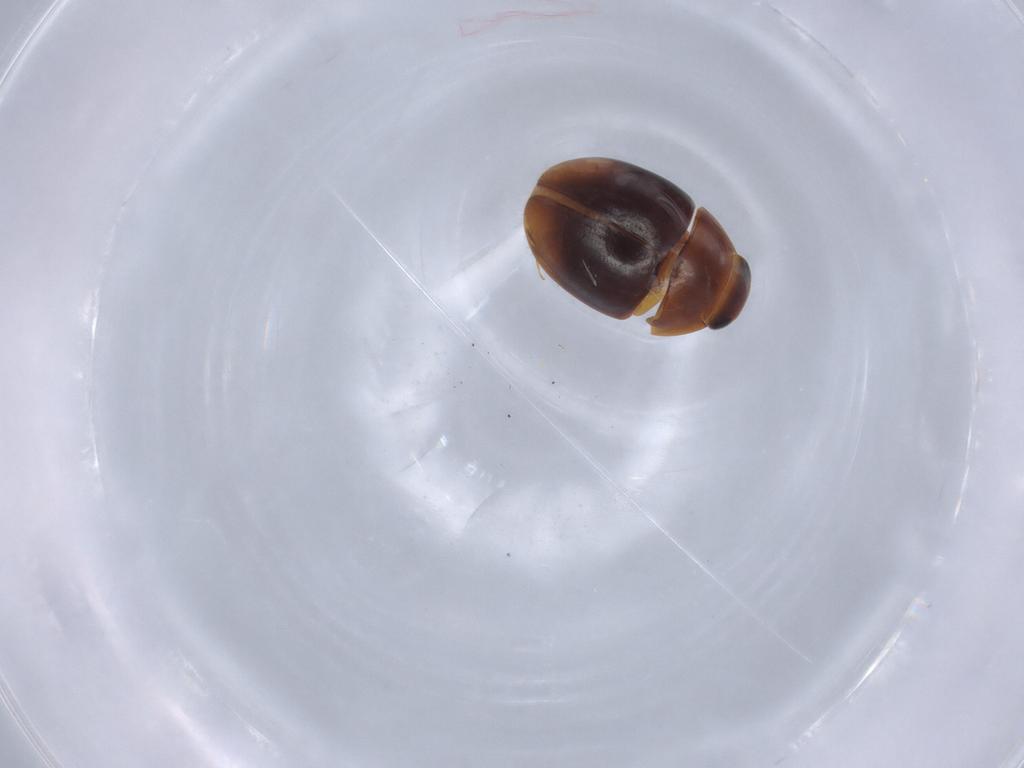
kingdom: Animalia
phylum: Arthropoda
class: Insecta
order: Coleoptera
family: Phalacridae
